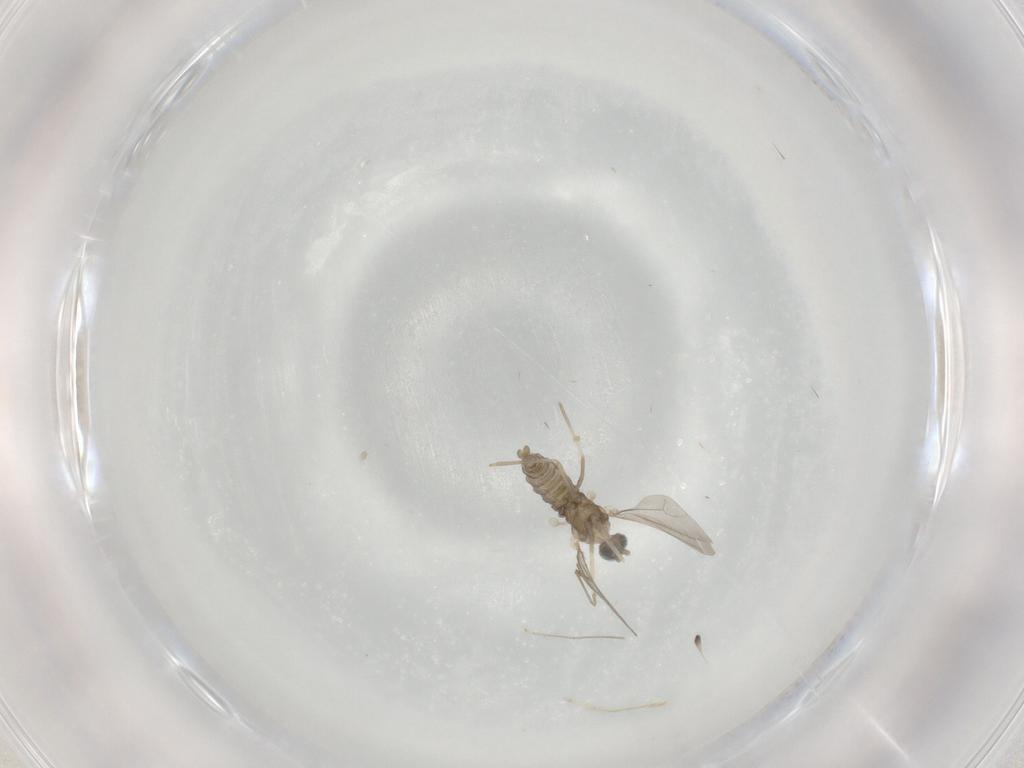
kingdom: Animalia
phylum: Arthropoda
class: Insecta
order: Diptera
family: Cecidomyiidae
